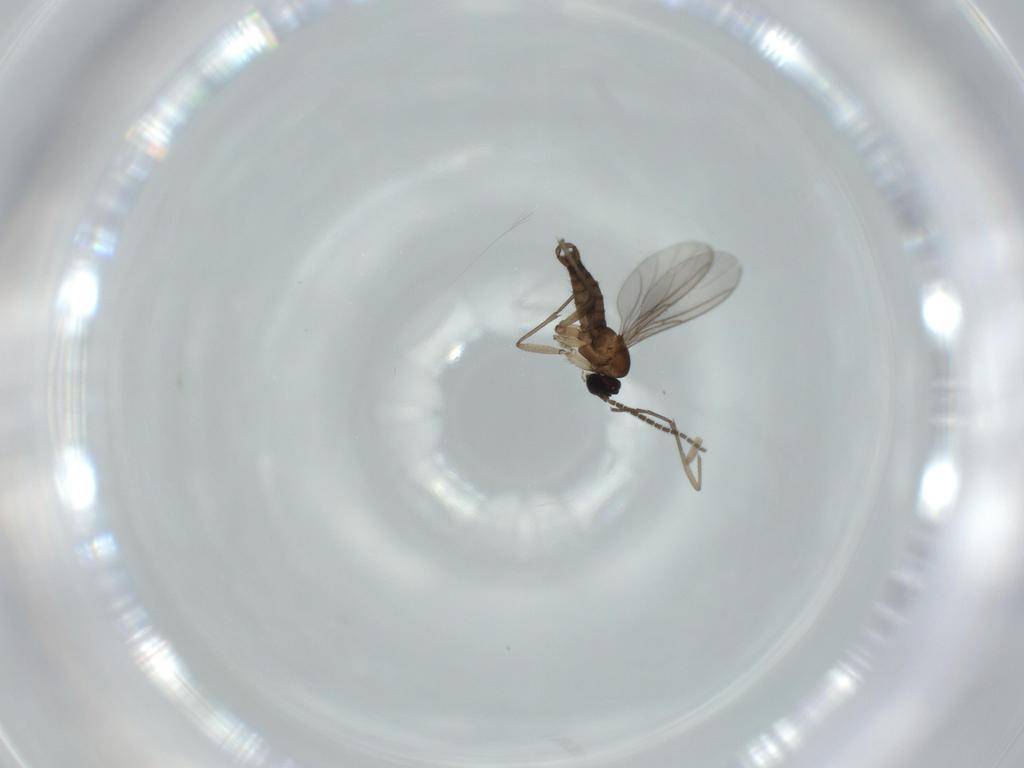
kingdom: Animalia
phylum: Arthropoda
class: Insecta
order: Diptera
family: Sciaridae
